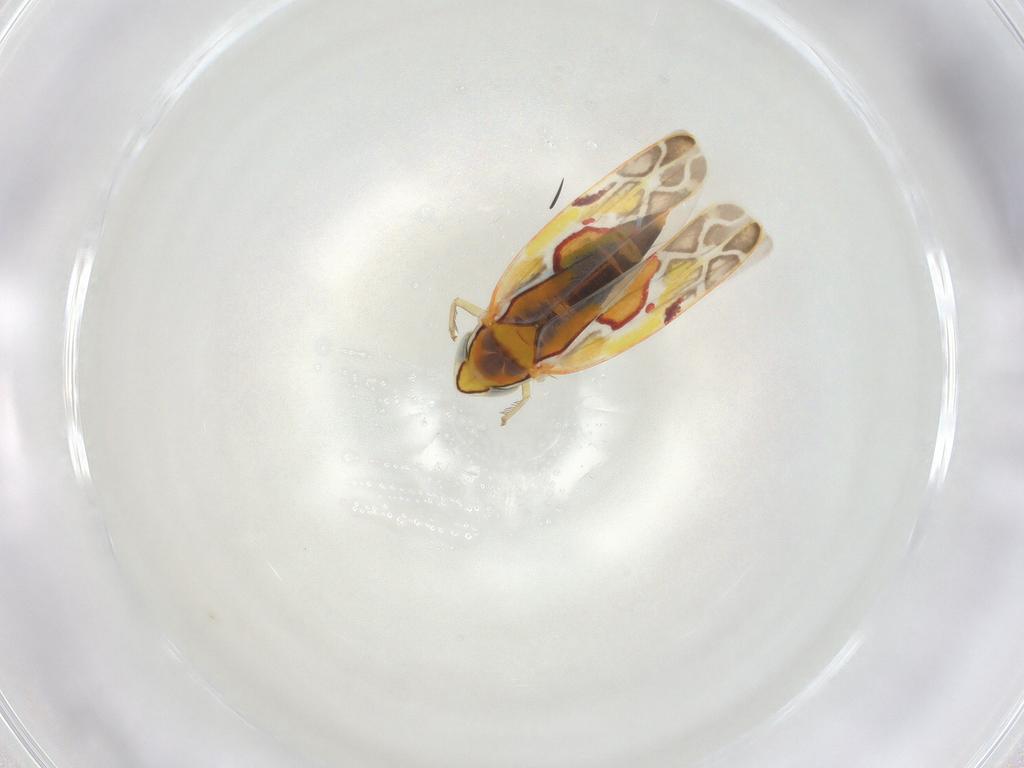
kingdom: Animalia
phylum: Arthropoda
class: Insecta
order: Hemiptera
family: Cicadellidae
